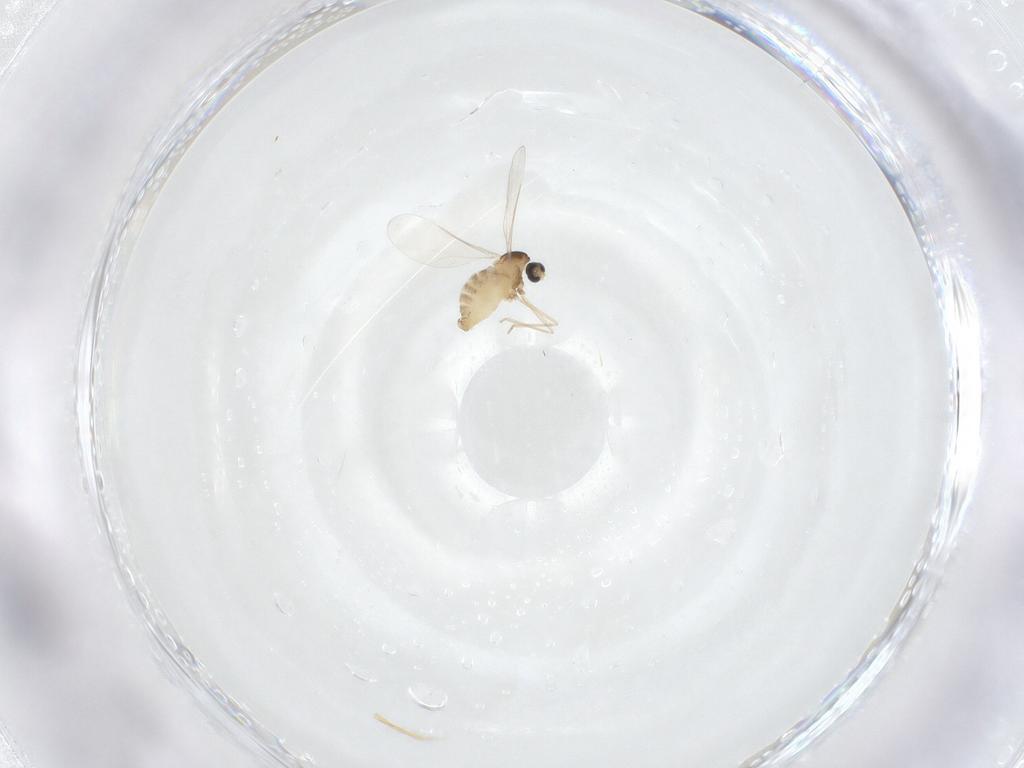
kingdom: Animalia
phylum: Arthropoda
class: Insecta
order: Diptera
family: Cecidomyiidae
